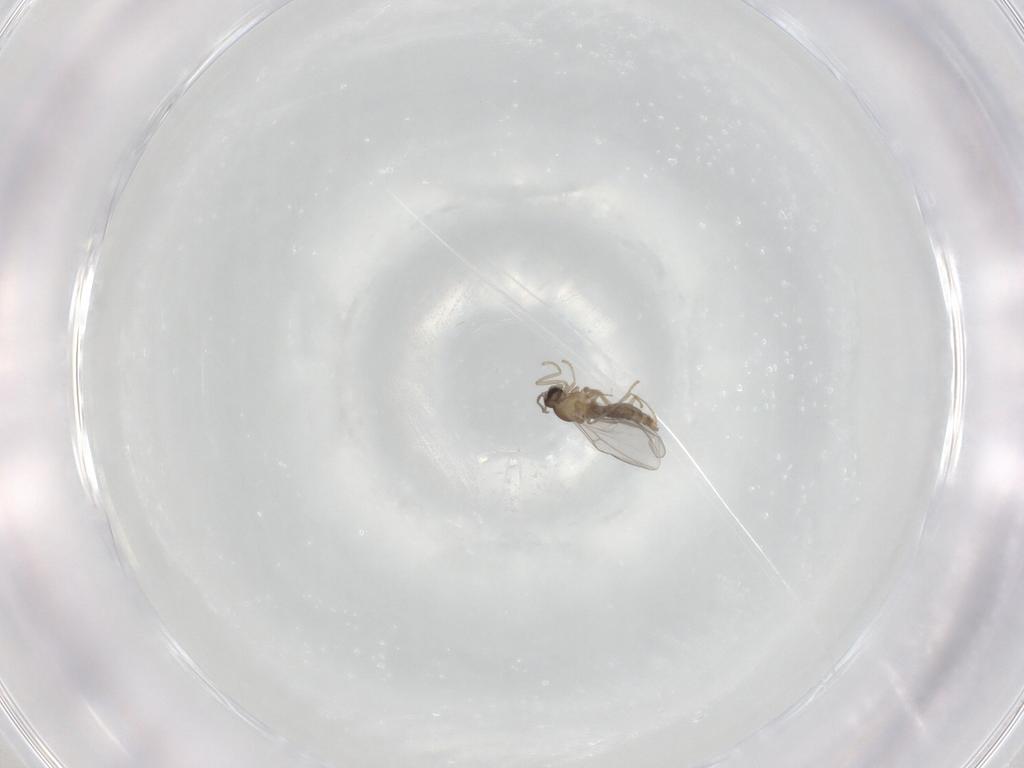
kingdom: Animalia
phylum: Arthropoda
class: Insecta
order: Diptera
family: Cecidomyiidae
